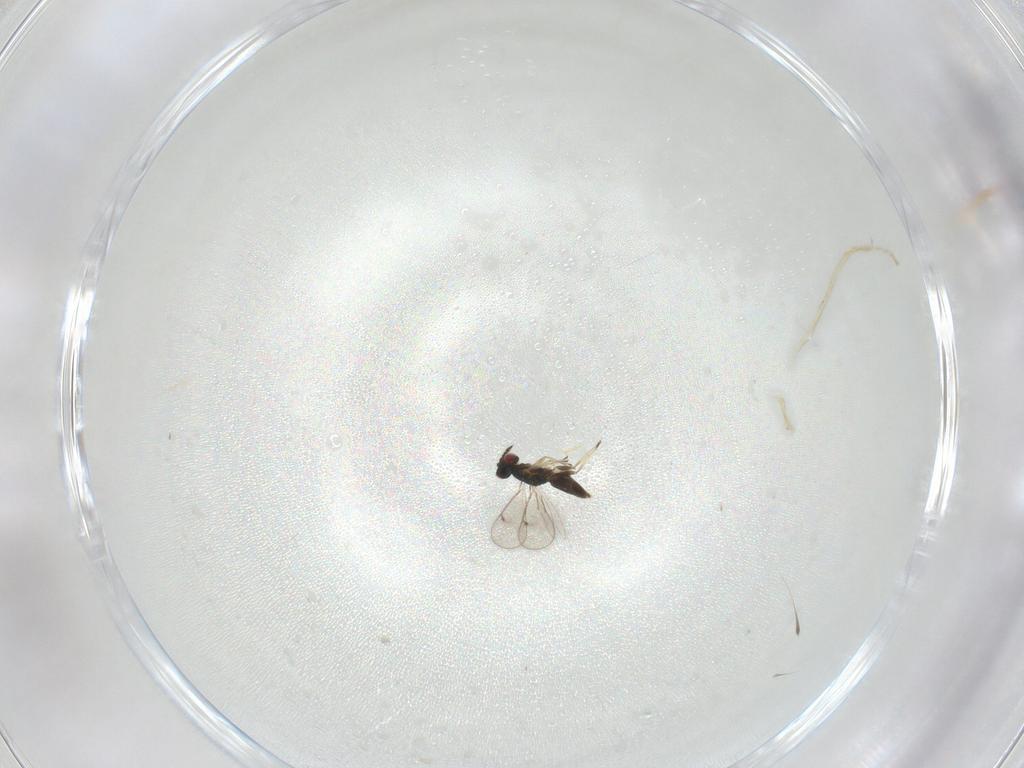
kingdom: Animalia
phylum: Arthropoda
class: Insecta
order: Hymenoptera
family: Eulophidae
